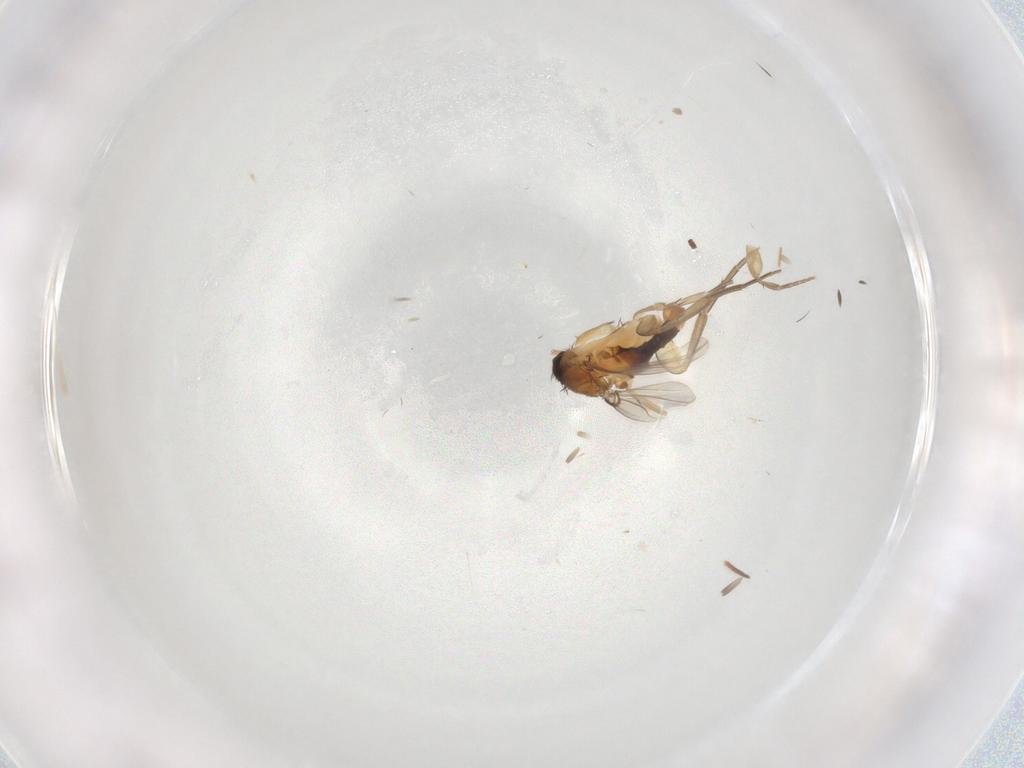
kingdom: Animalia
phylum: Arthropoda
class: Insecta
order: Diptera
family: Phoridae
